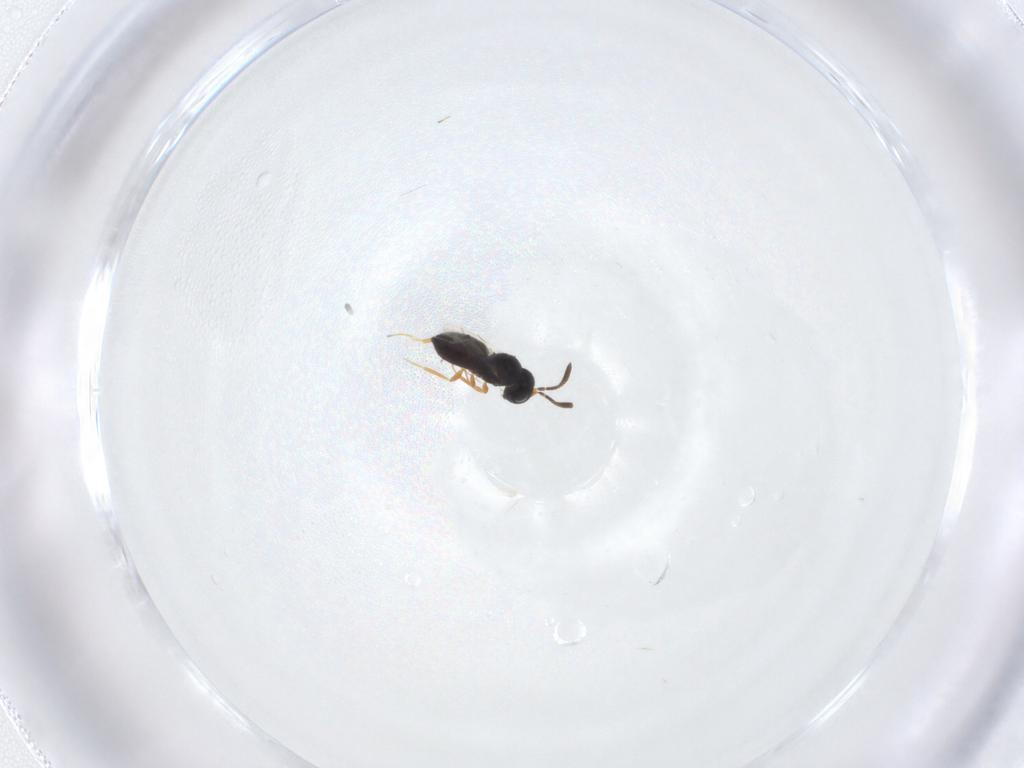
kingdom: Animalia
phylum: Arthropoda
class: Insecta
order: Hymenoptera
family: Scelionidae
